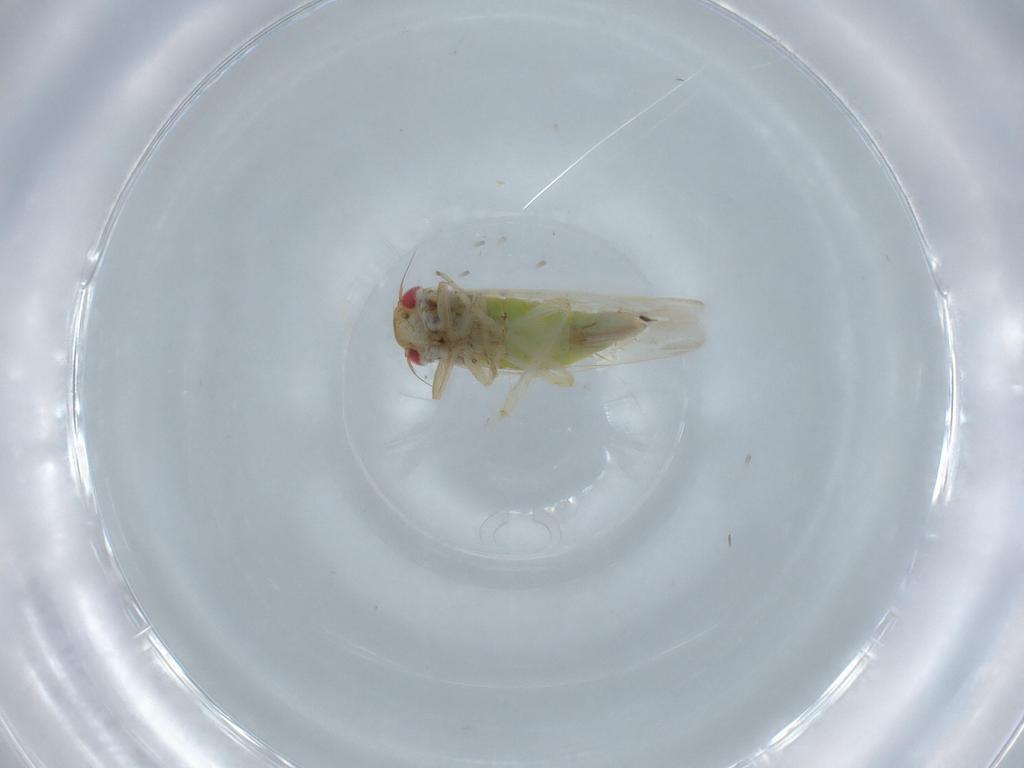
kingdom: Animalia
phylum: Arthropoda
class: Insecta
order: Hemiptera
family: Cicadellidae
